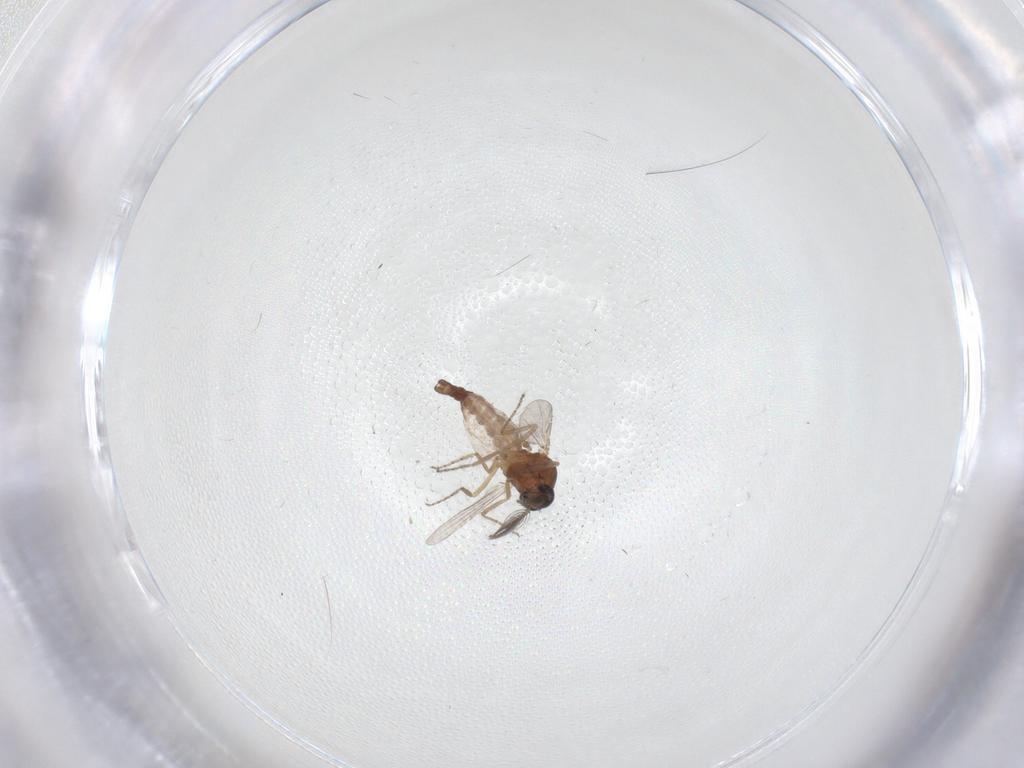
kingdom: Animalia
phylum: Arthropoda
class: Insecta
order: Diptera
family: Ceratopogonidae
